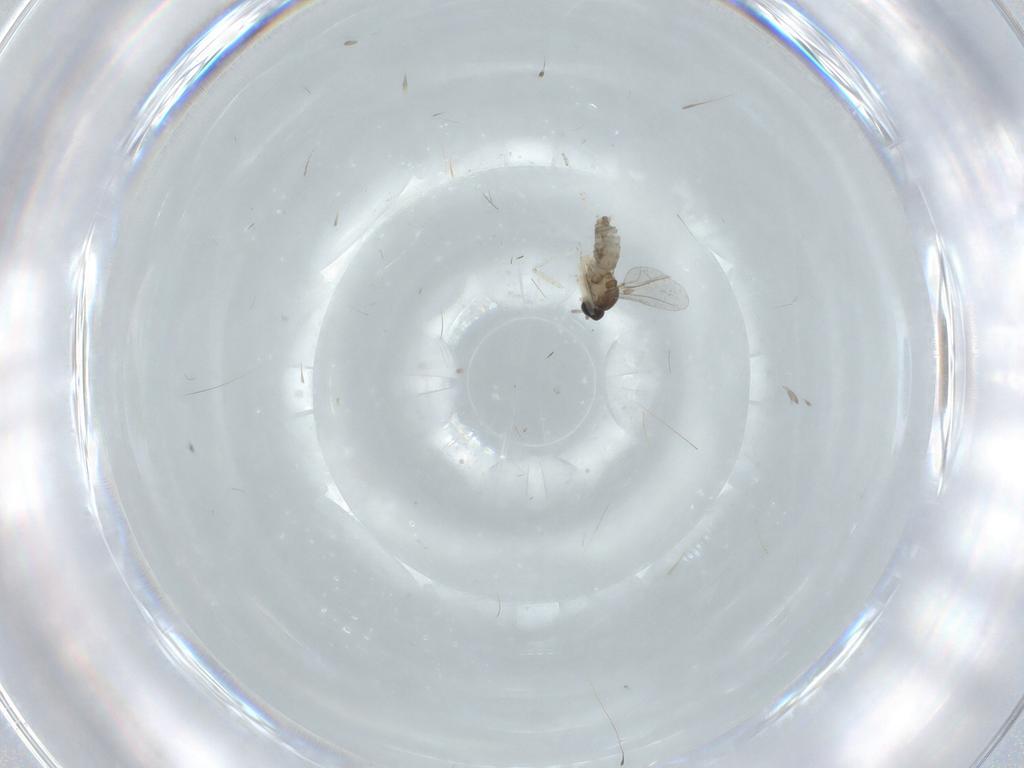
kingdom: Animalia
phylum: Arthropoda
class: Insecta
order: Diptera
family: Cecidomyiidae
